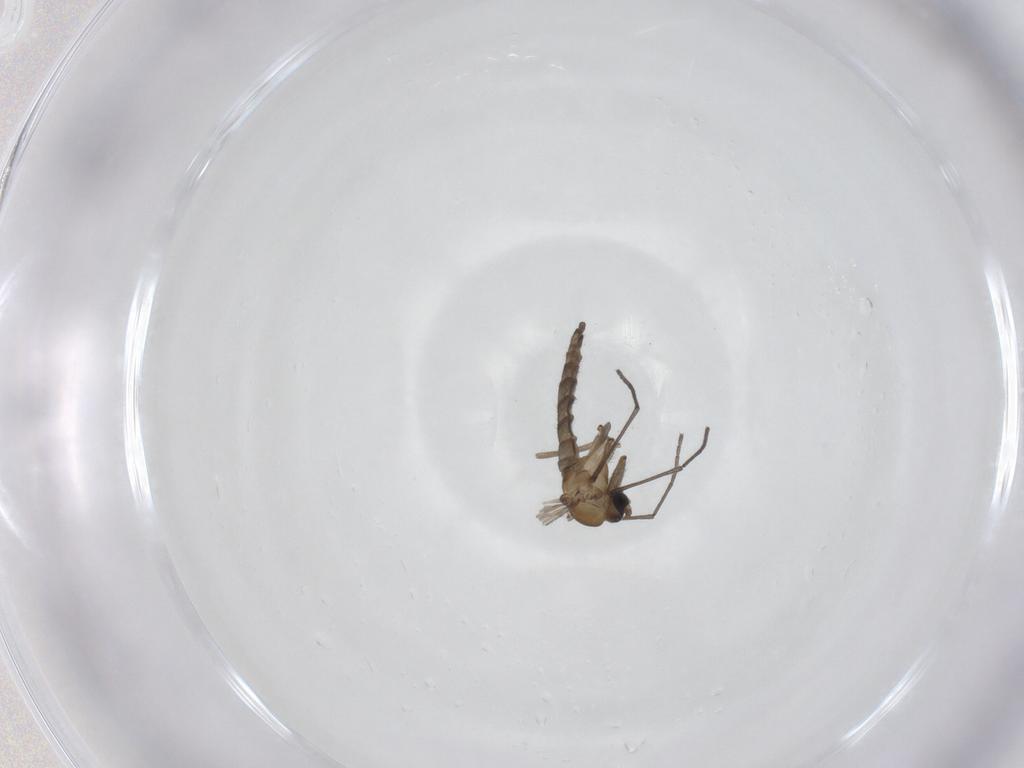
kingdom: Animalia
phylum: Arthropoda
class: Insecta
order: Diptera
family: Sciaridae
